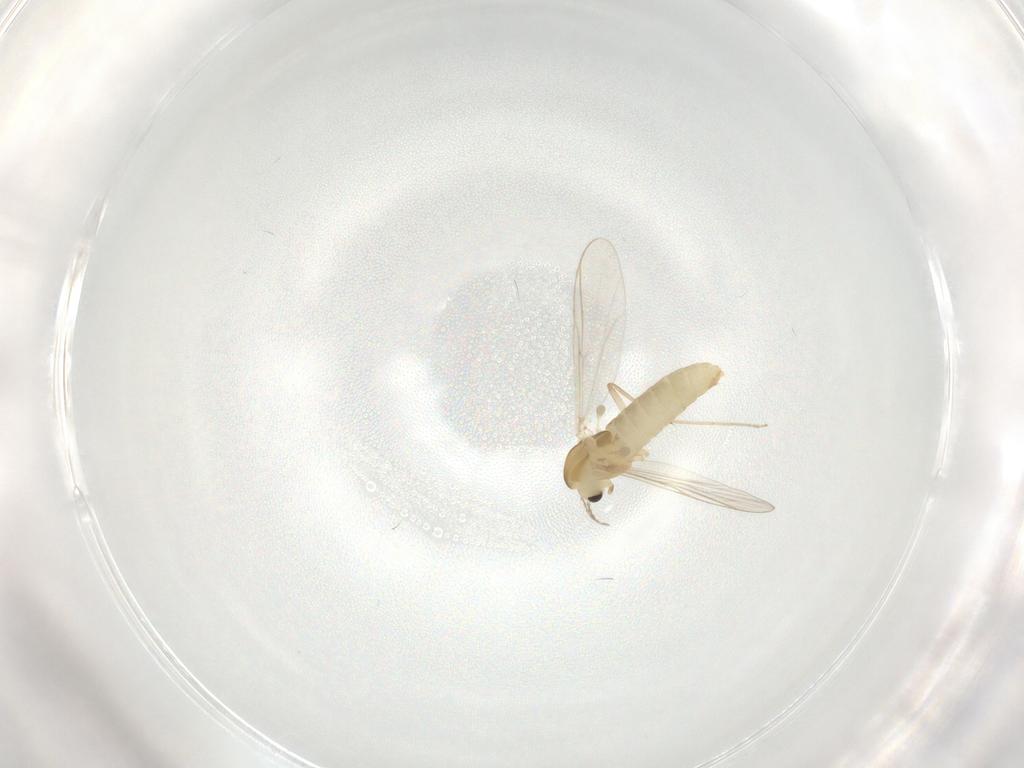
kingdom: Animalia
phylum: Arthropoda
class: Insecta
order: Diptera
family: Chironomidae
